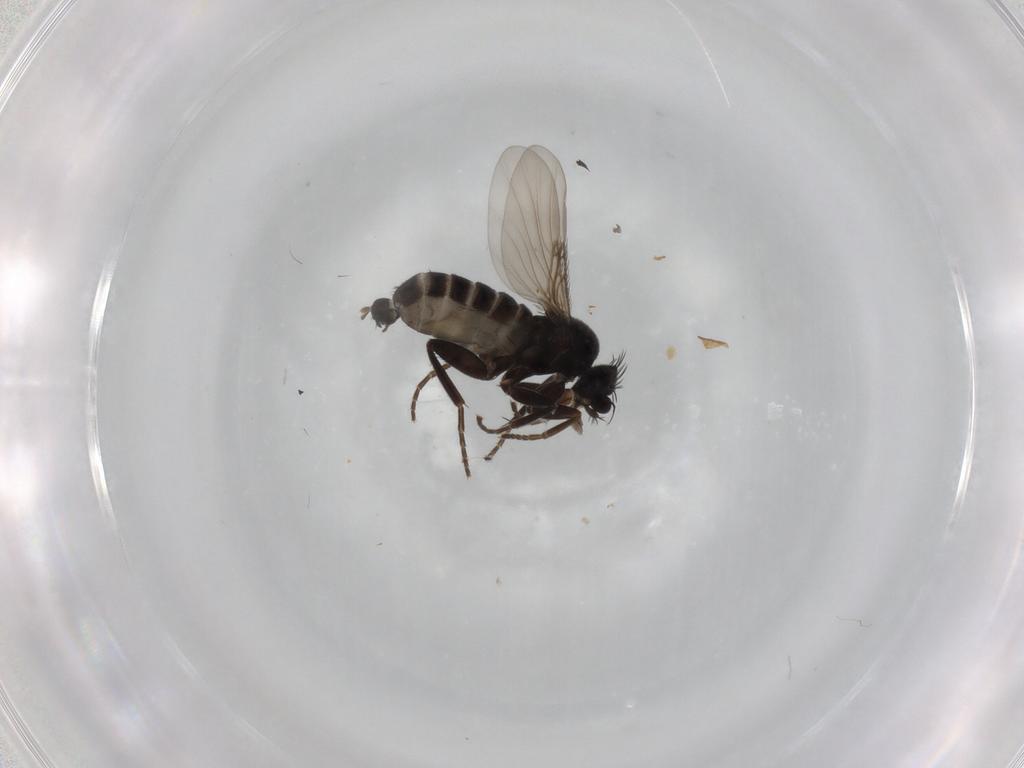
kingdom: Animalia
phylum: Arthropoda
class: Insecta
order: Diptera
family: Phoridae
